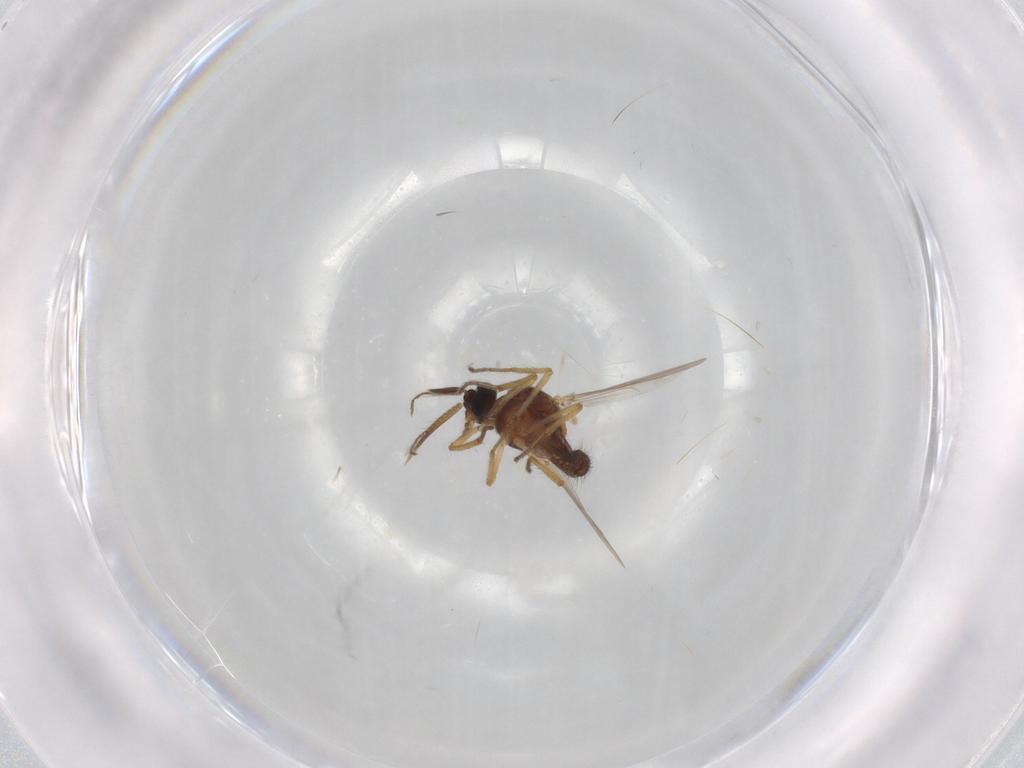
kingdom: Animalia
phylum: Arthropoda
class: Insecta
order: Diptera
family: Ceratopogonidae
